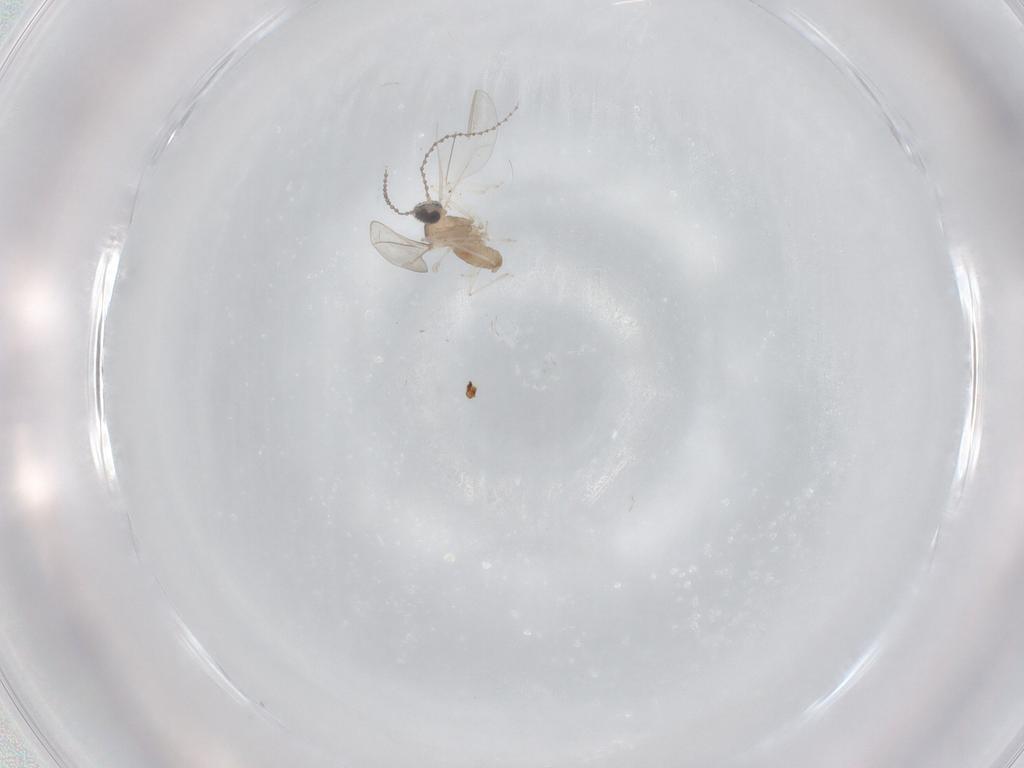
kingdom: Animalia
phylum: Arthropoda
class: Insecta
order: Diptera
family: Cecidomyiidae
